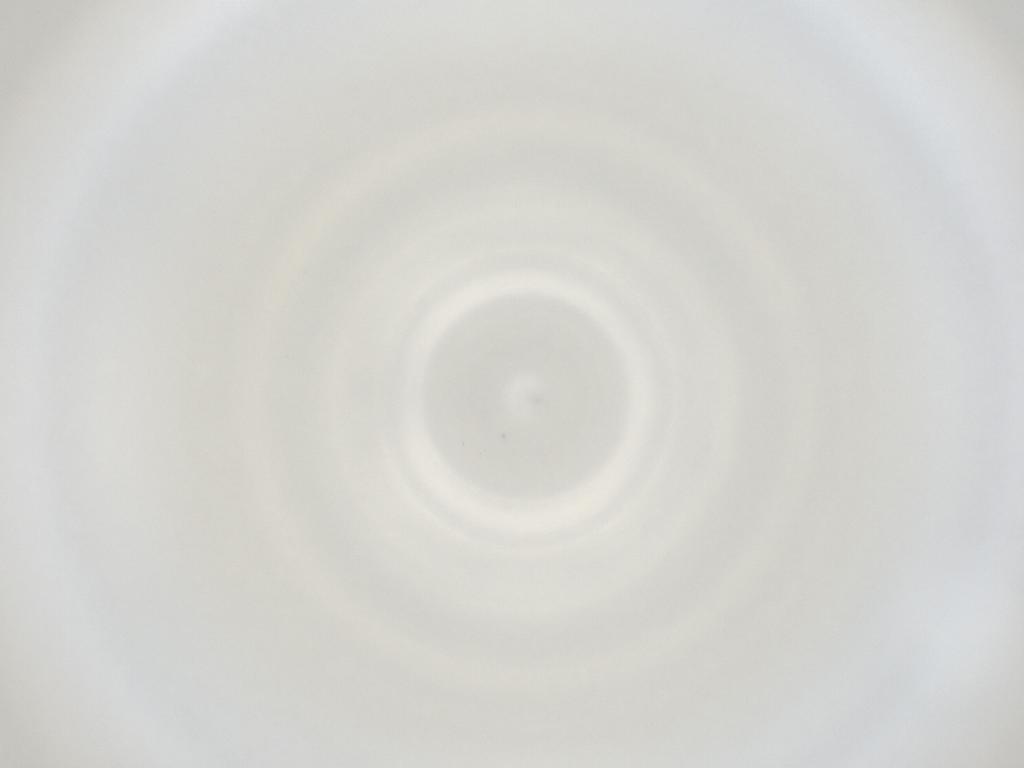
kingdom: Animalia
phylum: Arthropoda
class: Insecta
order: Diptera
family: Cecidomyiidae
